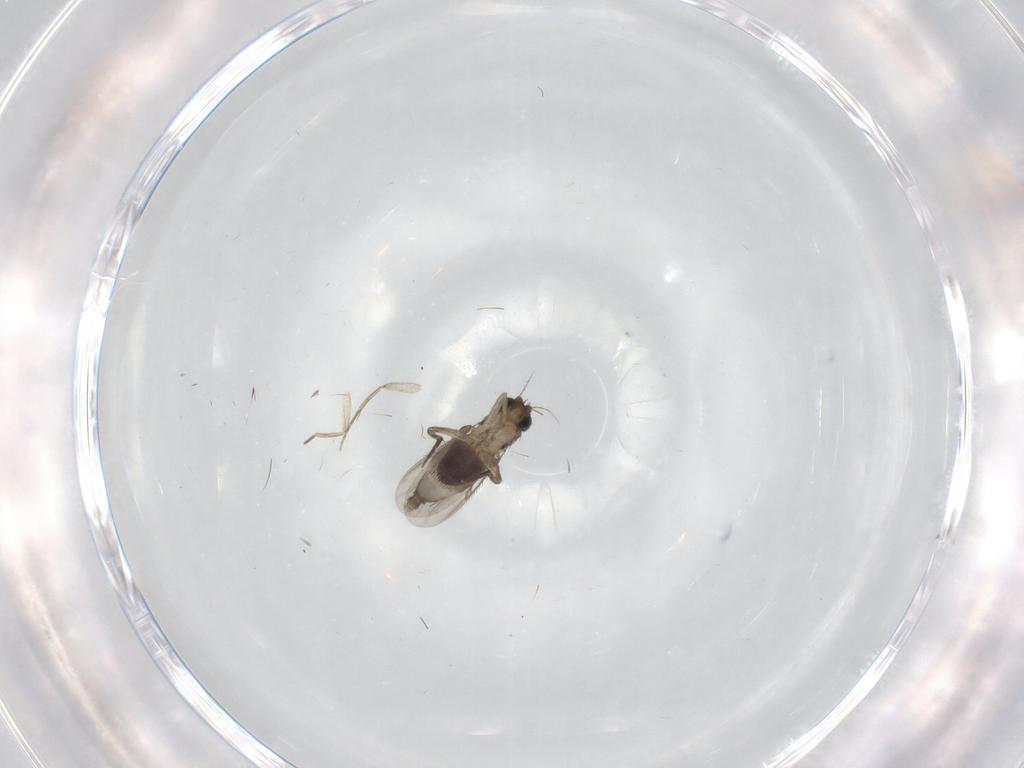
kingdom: Animalia
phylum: Arthropoda
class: Insecta
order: Diptera
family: Phoridae
